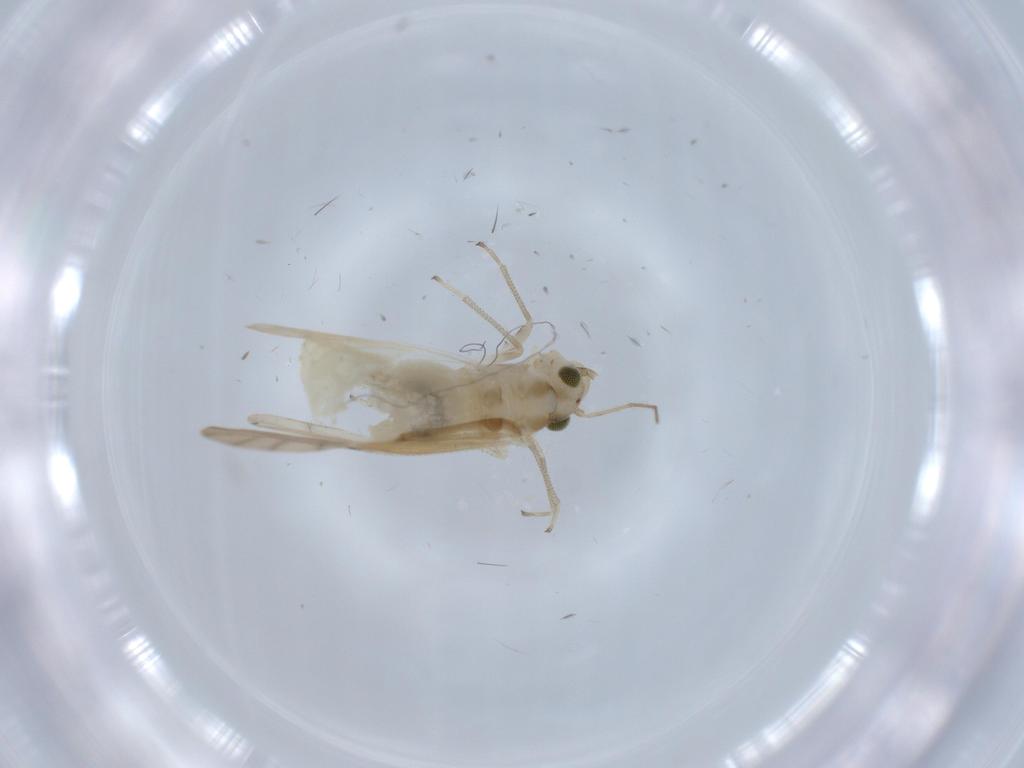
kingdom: Animalia
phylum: Arthropoda
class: Insecta
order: Psocodea
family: Caeciliusidae
